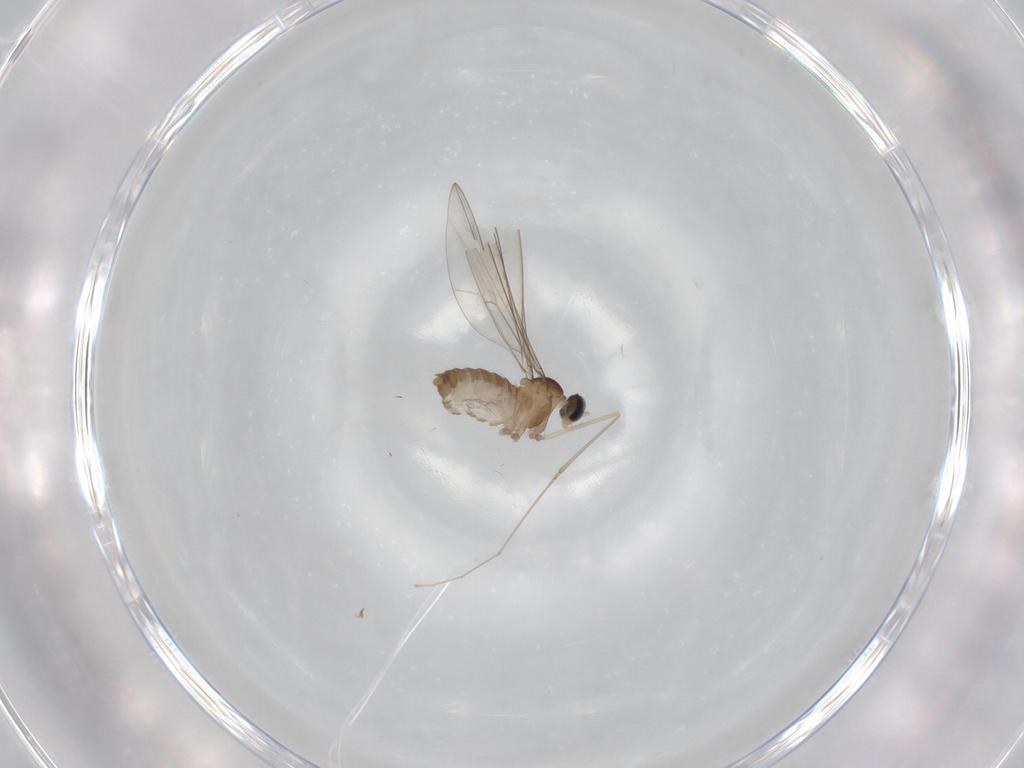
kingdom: Animalia
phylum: Arthropoda
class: Insecta
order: Diptera
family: Cecidomyiidae
